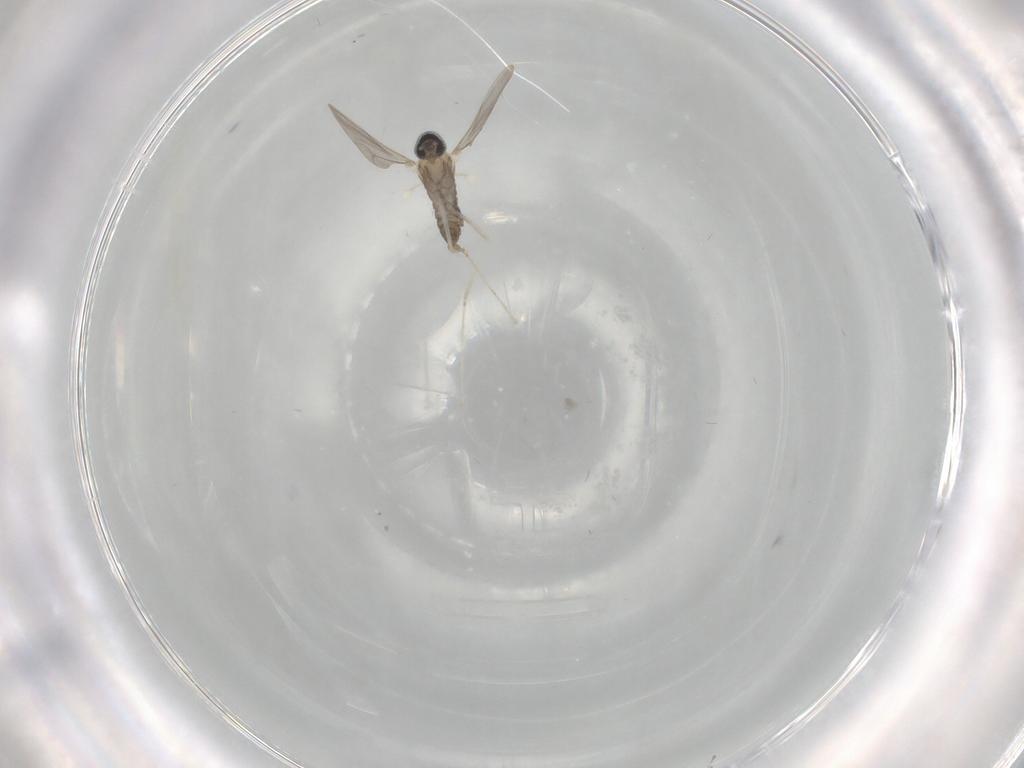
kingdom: Animalia
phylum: Arthropoda
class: Insecta
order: Diptera
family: Cecidomyiidae
